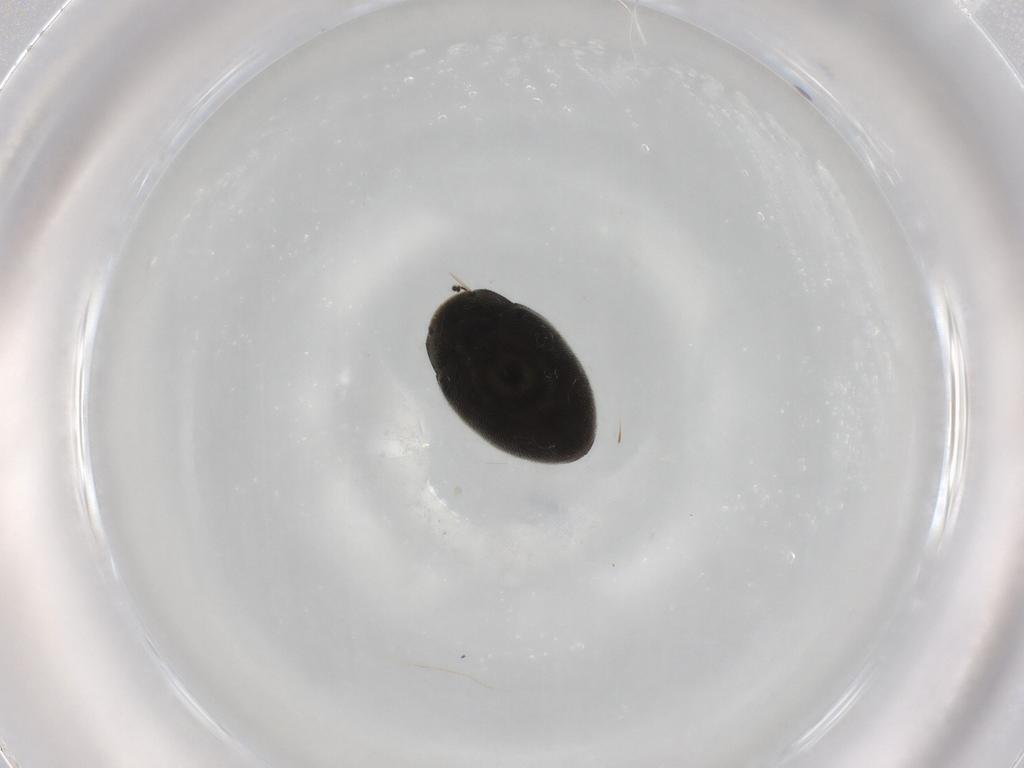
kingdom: Animalia
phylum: Arthropoda
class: Insecta
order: Coleoptera
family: Limnichidae
